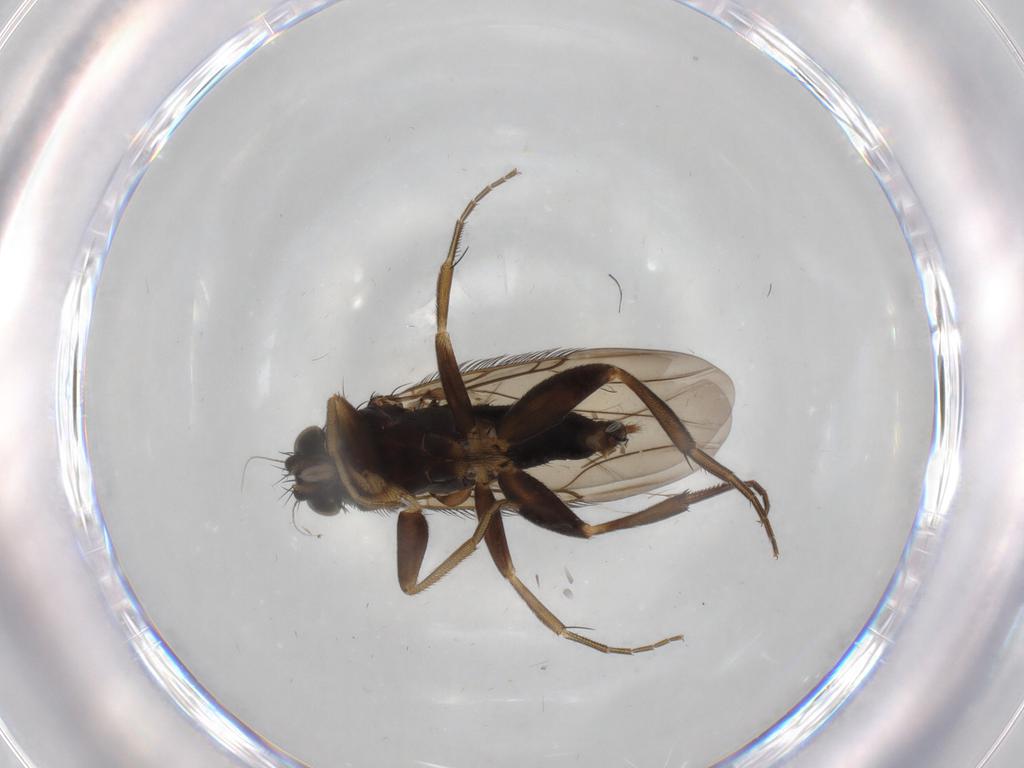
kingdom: Animalia
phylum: Arthropoda
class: Insecta
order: Diptera
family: Phoridae
